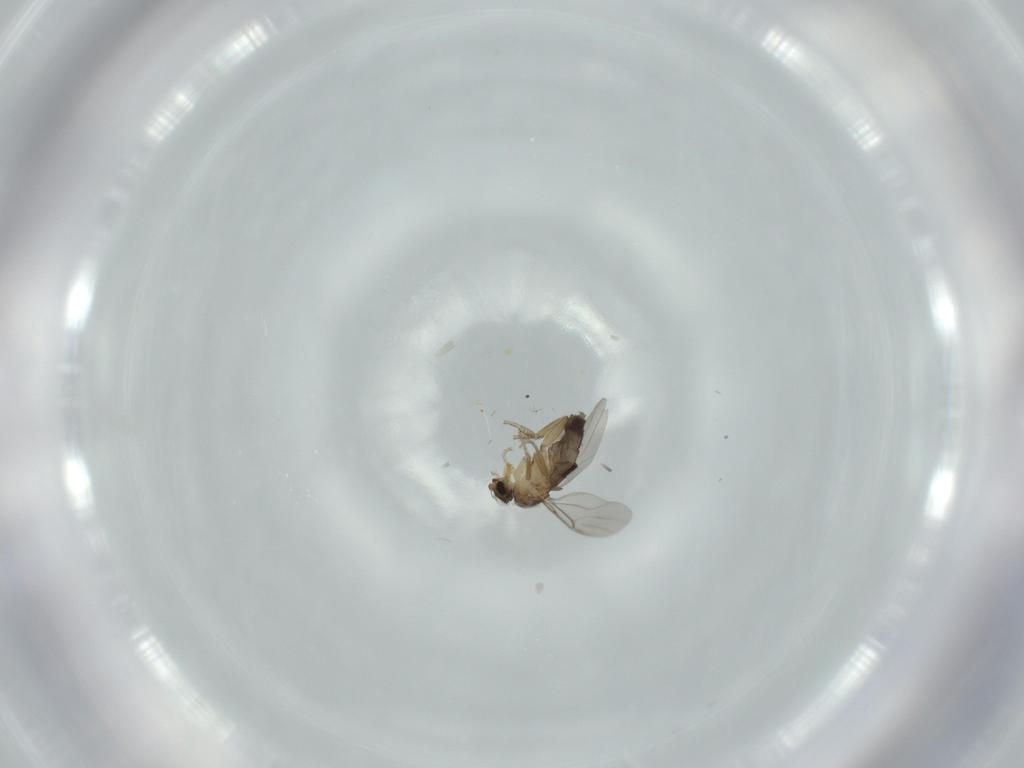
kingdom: Animalia
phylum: Arthropoda
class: Insecta
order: Diptera
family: Phoridae
